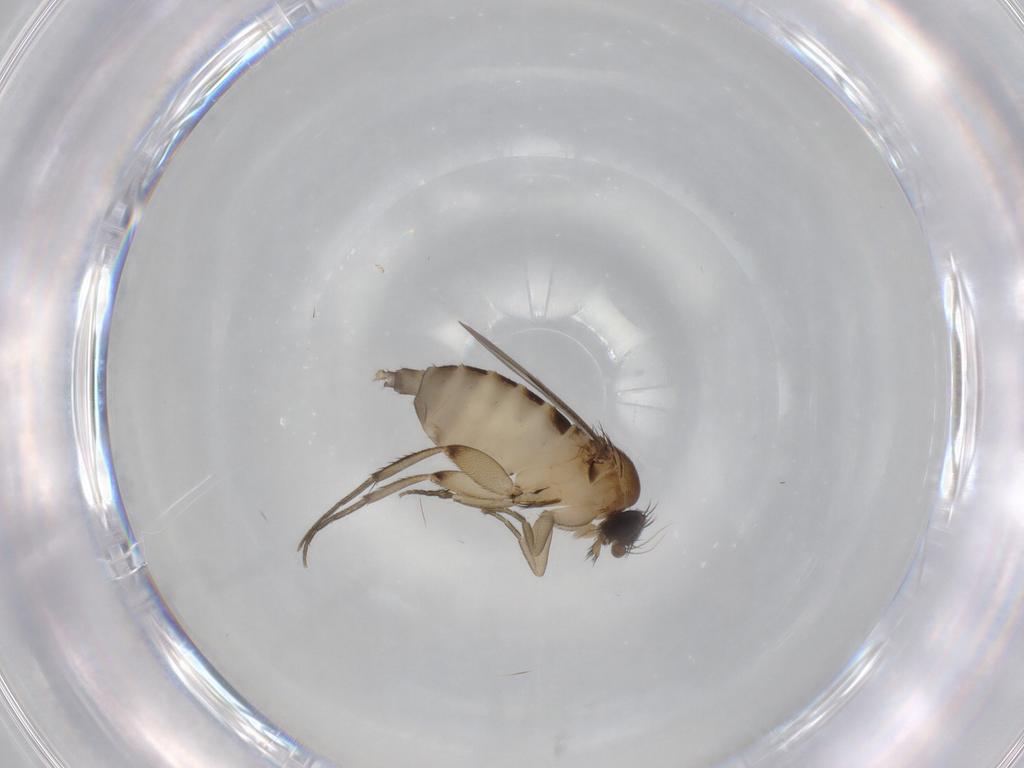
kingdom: Animalia
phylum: Arthropoda
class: Insecta
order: Diptera
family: Phoridae
